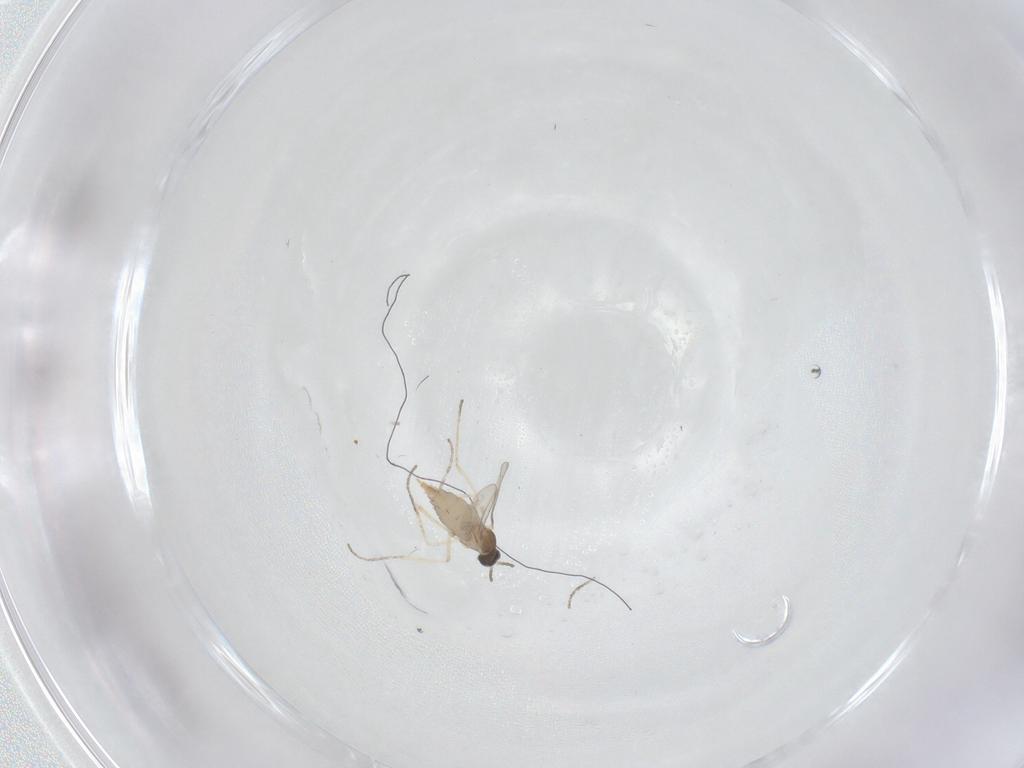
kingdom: Animalia
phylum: Arthropoda
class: Insecta
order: Diptera
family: Cecidomyiidae
